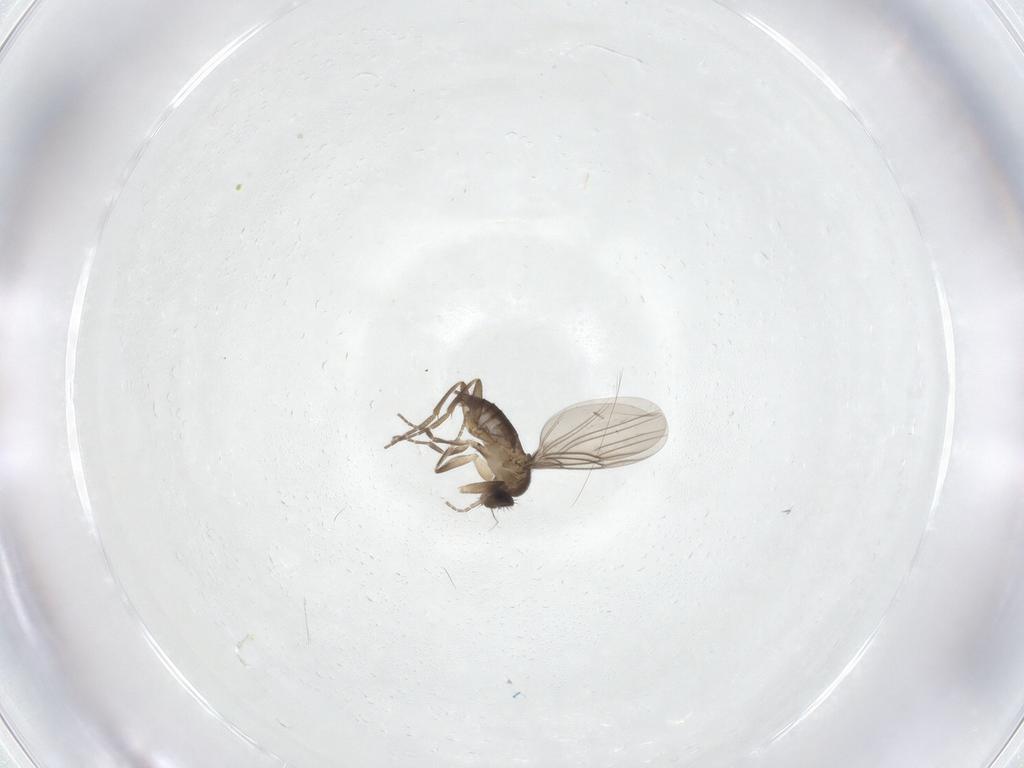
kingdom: Animalia
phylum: Arthropoda
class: Insecta
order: Diptera
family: Phoridae
